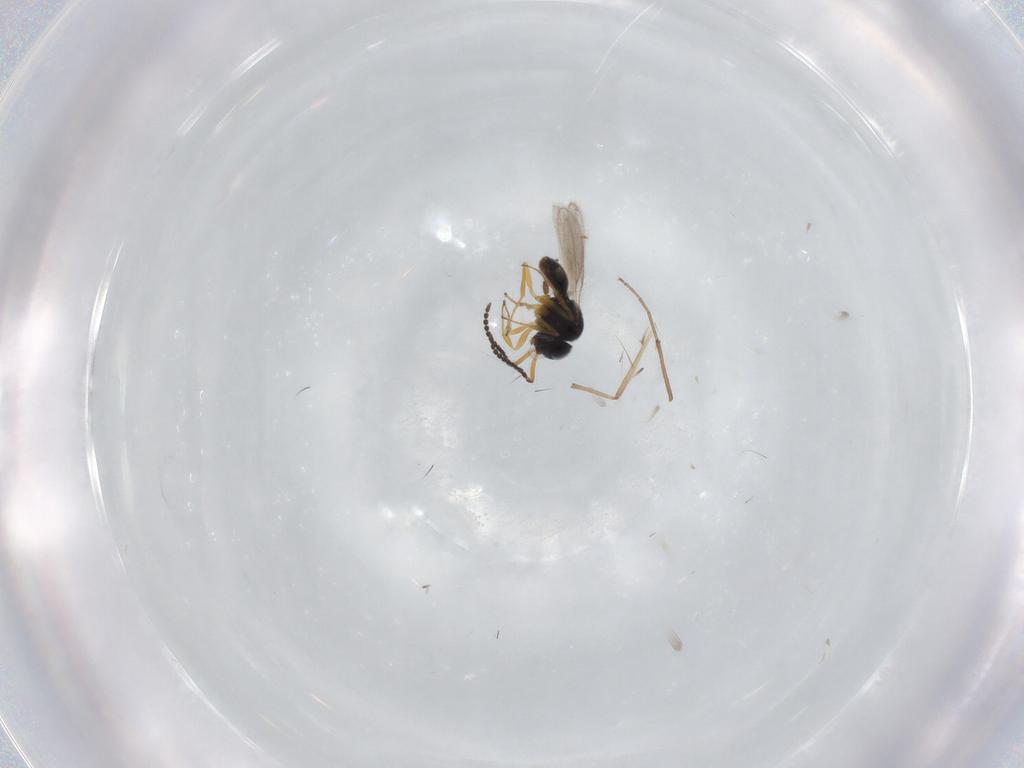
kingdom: Animalia
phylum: Arthropoda
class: Insecta
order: Hymenoptera
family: Scelionidae
